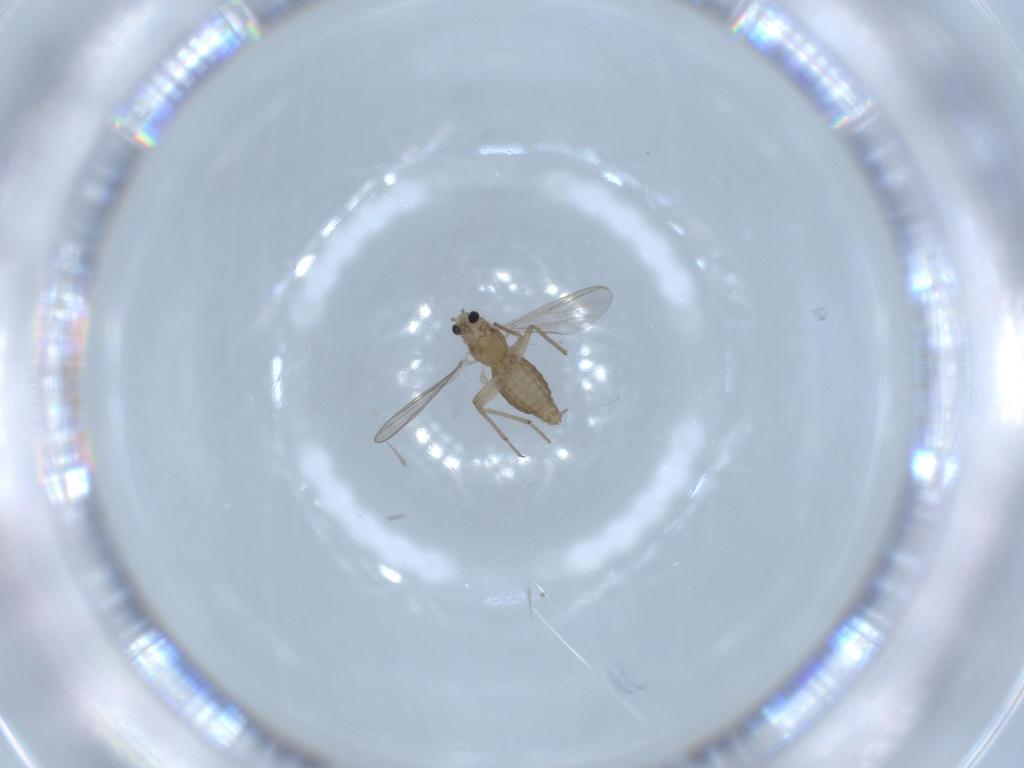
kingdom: Animalia
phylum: Arthropoda
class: Insecta
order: Diptera
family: Chironomidae
